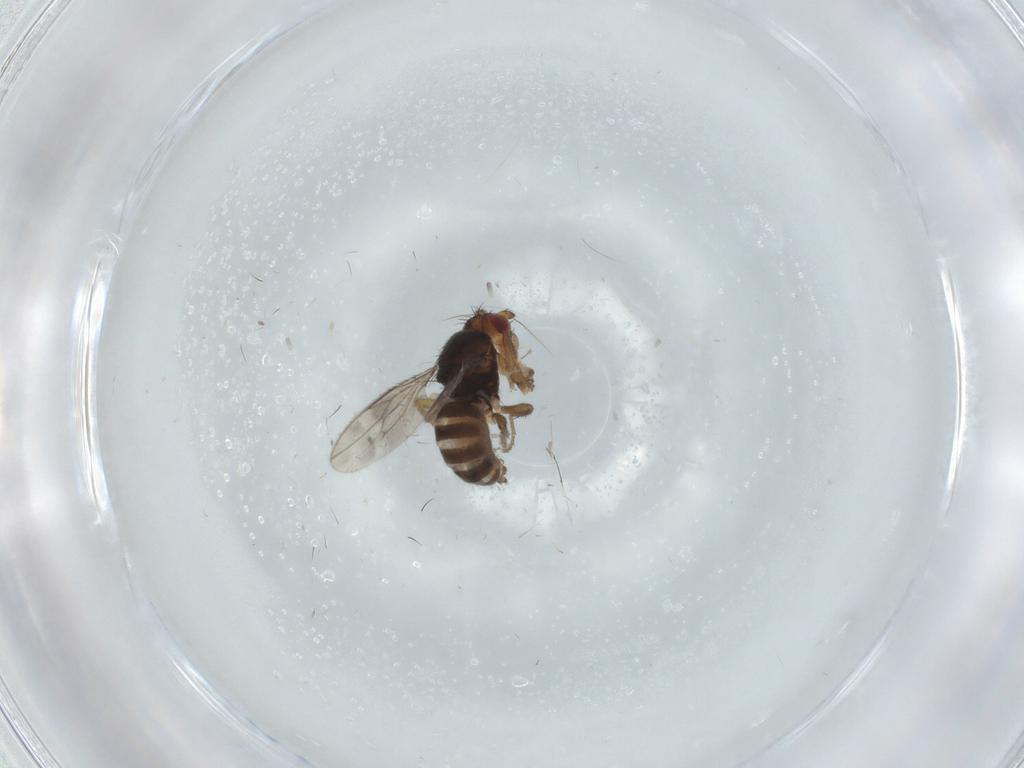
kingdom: Animalia
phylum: Arthropoda
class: Insecta
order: Diptera
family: Sphaeroceridae
